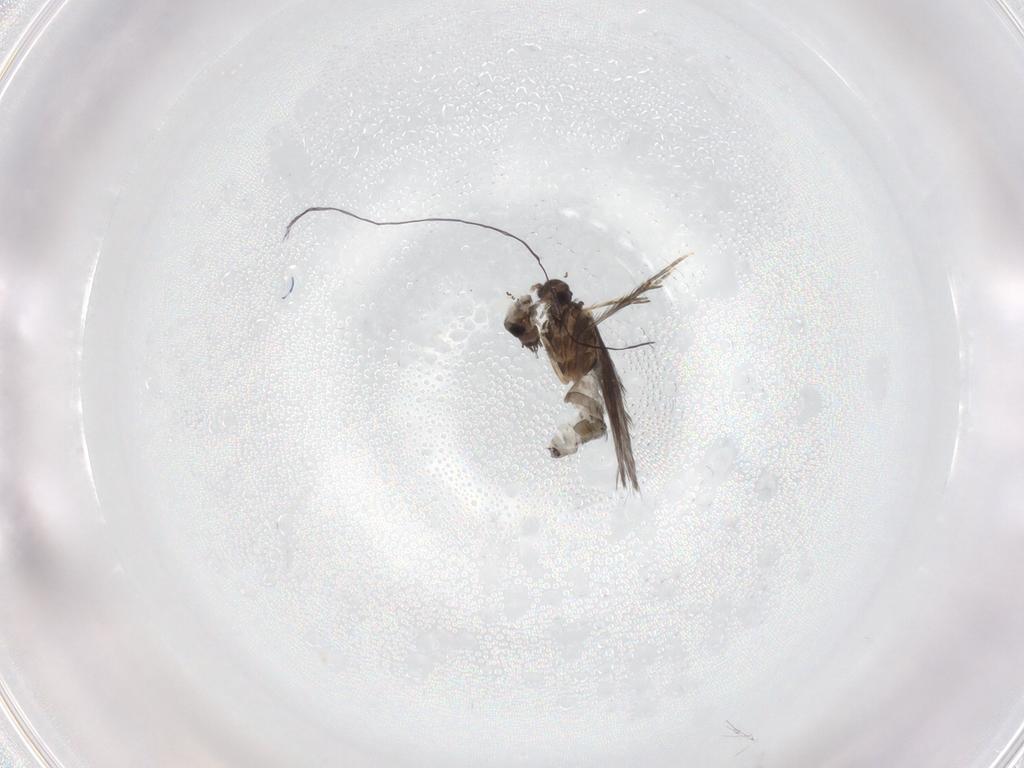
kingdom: Animalia
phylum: Arthropoda
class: Insecta
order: Trichoptera
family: Hydroptilidae
